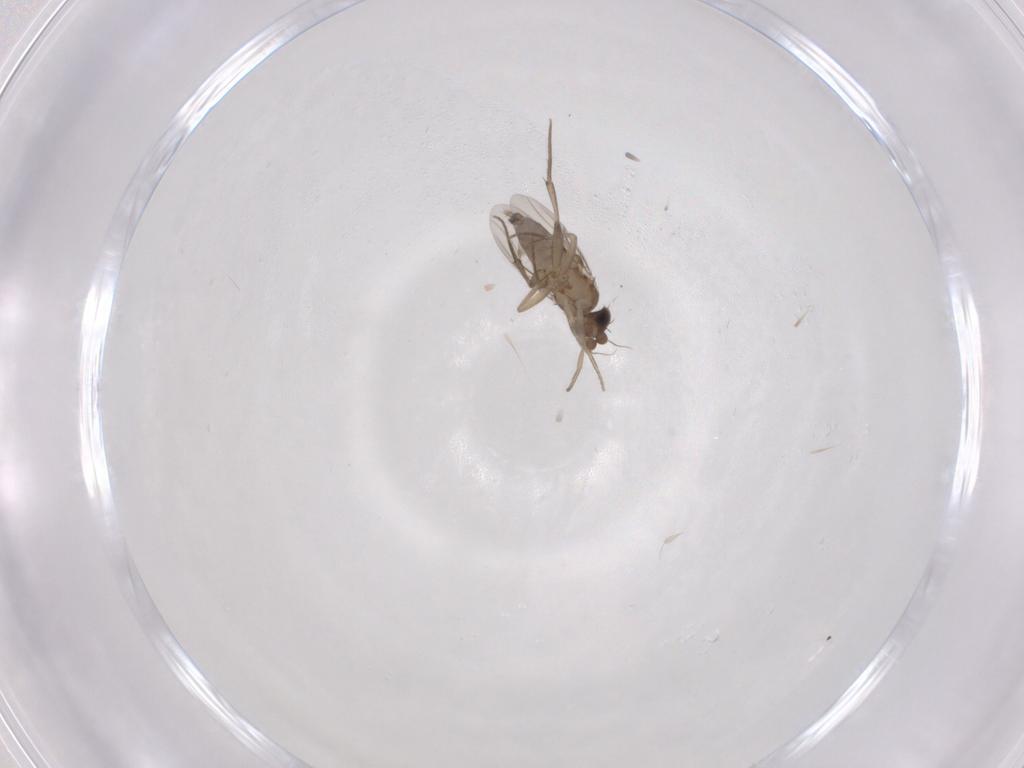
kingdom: Animalia
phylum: Arthropoda
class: Insecta
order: Diptera
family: Phoridae
